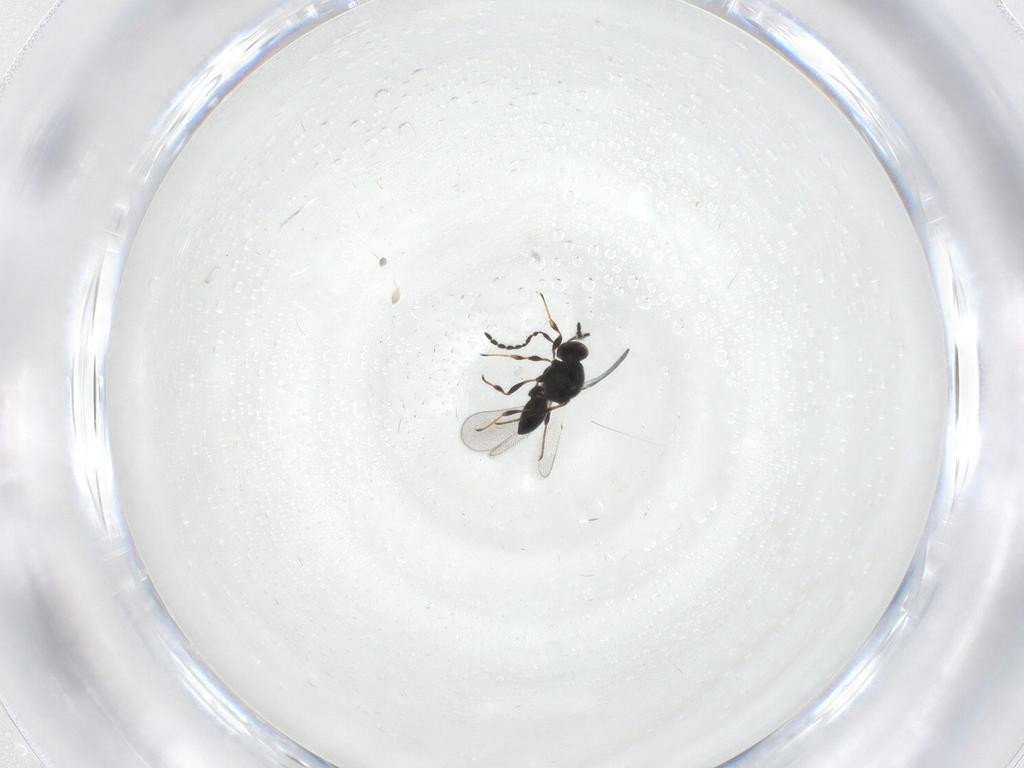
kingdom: Animalia
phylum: Arthropoda
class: Insecta
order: Hymenoptera
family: Platygastridae
